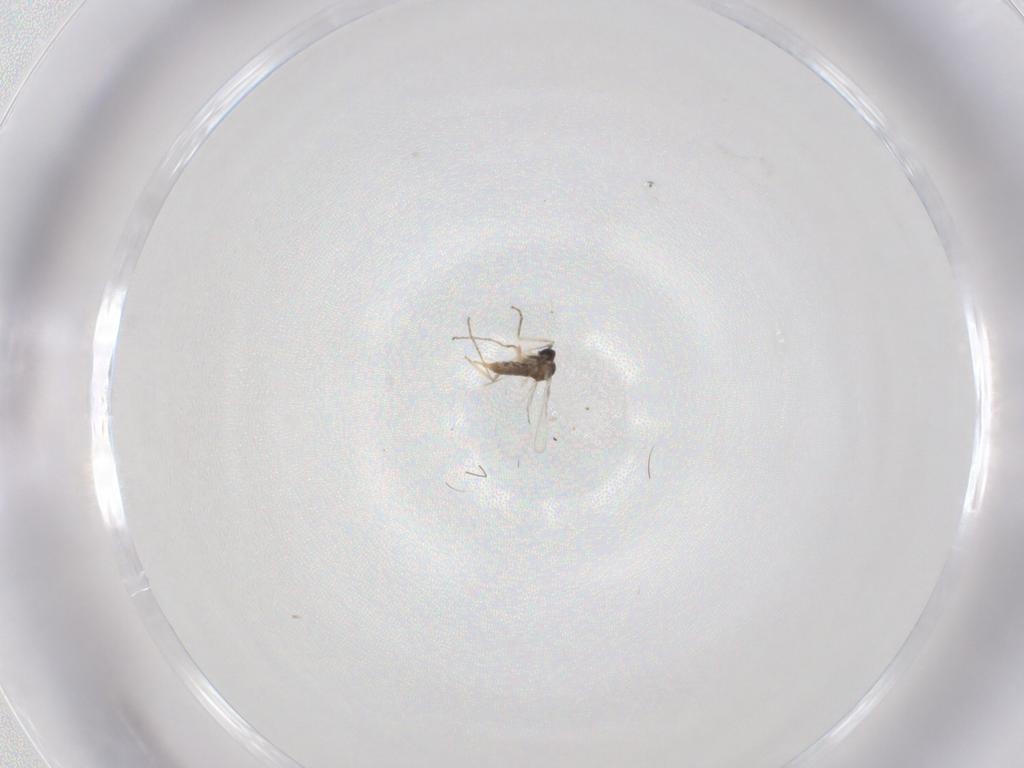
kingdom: Animalia
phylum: Arthropoda
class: Insecta
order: Diptera
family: Cecidomyiidae
